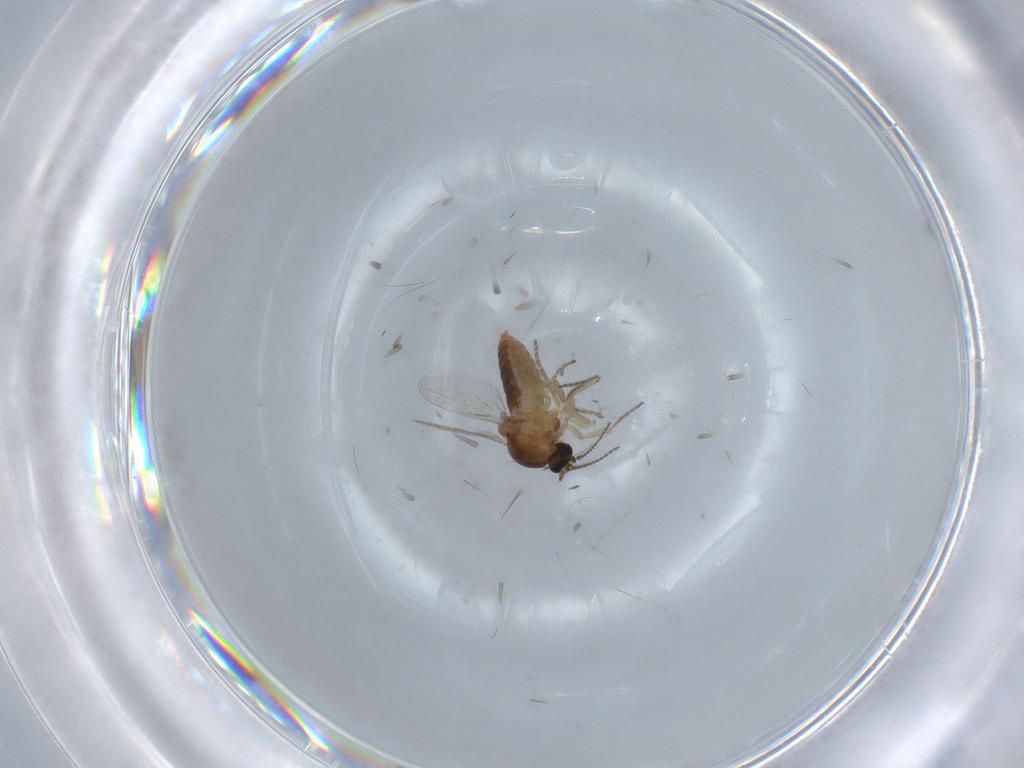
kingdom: Animalia
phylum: Arthropoda
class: Insecta
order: Diptera
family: Ceratopogonidae
